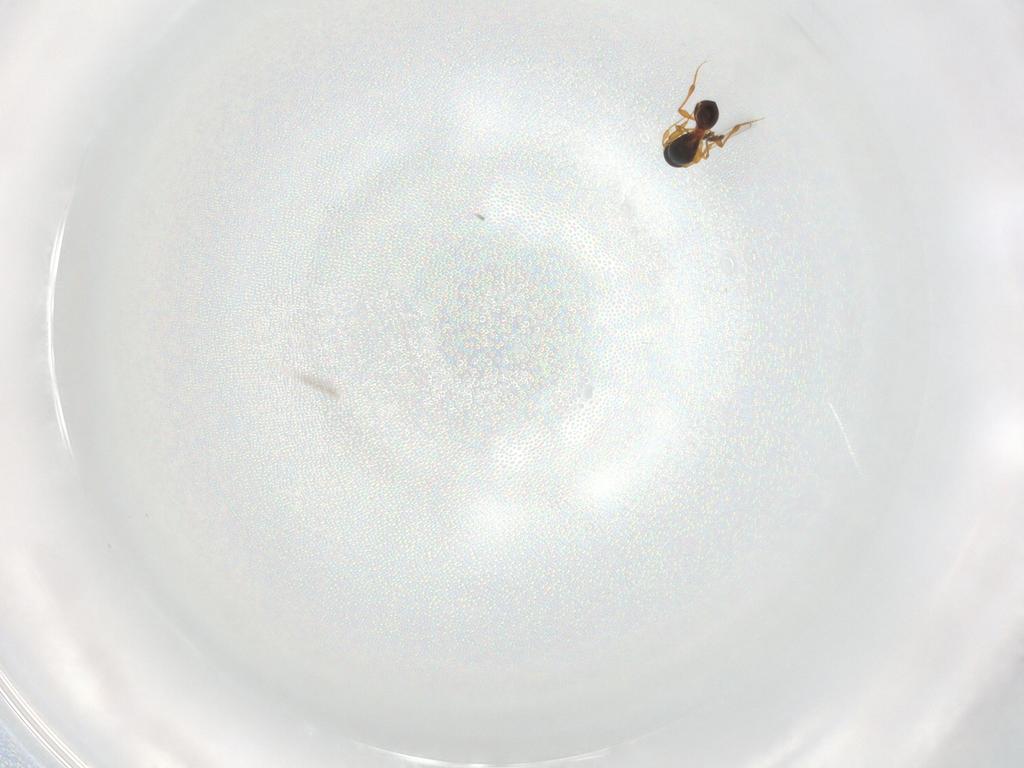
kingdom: Animalia
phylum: Arthropoda
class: Insecta
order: Hymenoptera
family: Platygastridae
